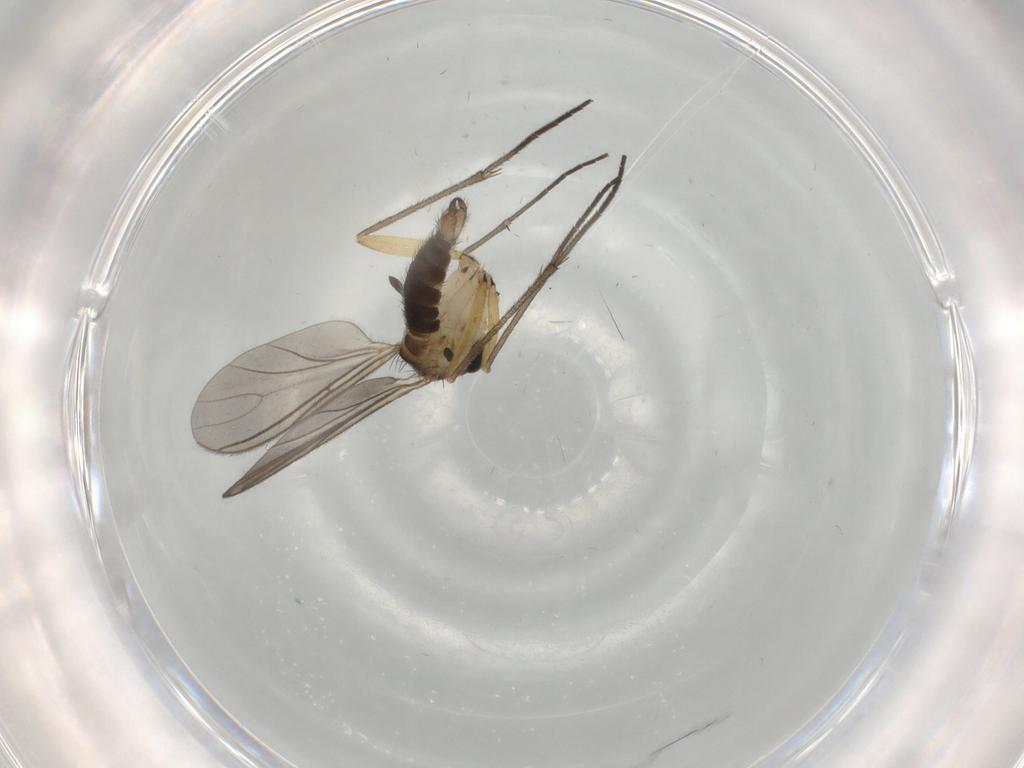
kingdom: Animalia
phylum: Arthropoda
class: Insecta
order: Diptera
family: Sciaridae
